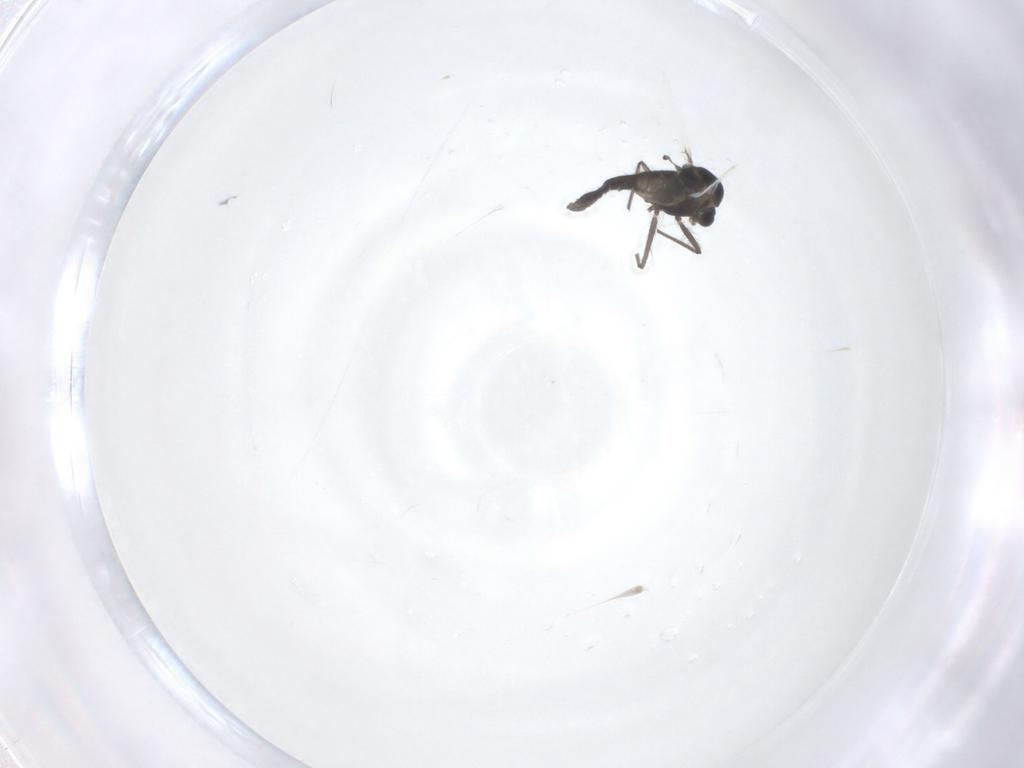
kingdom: Animalia
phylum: Arthropoda
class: Insecta
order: Diptera
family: Chironomidae
